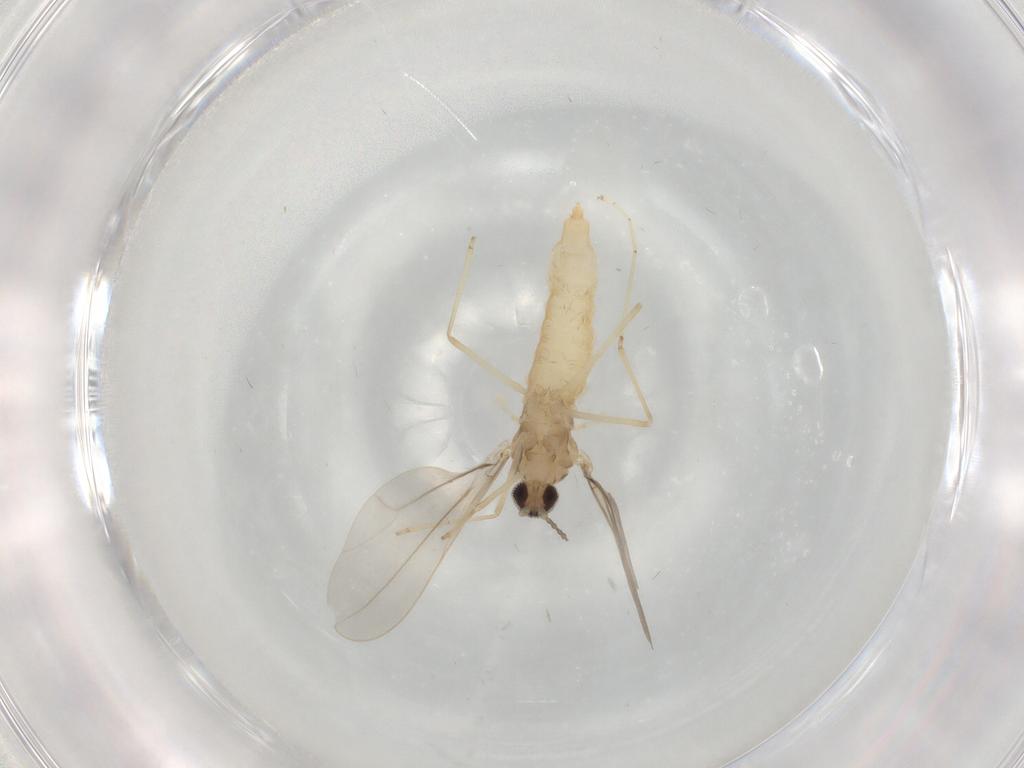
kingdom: Animalia
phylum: Arthropoda
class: Insecta
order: Diptera
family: Cecidomyiidae
